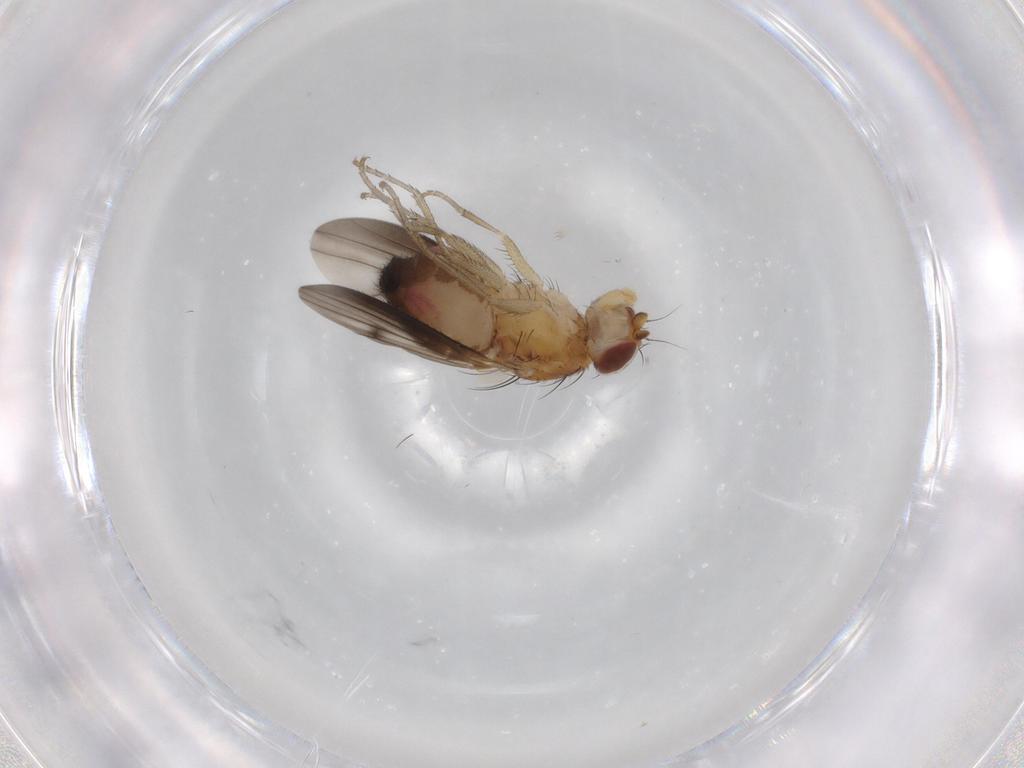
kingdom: Animalia
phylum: Arthropoda
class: Insecta
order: Diptera
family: Heleomyzidae
